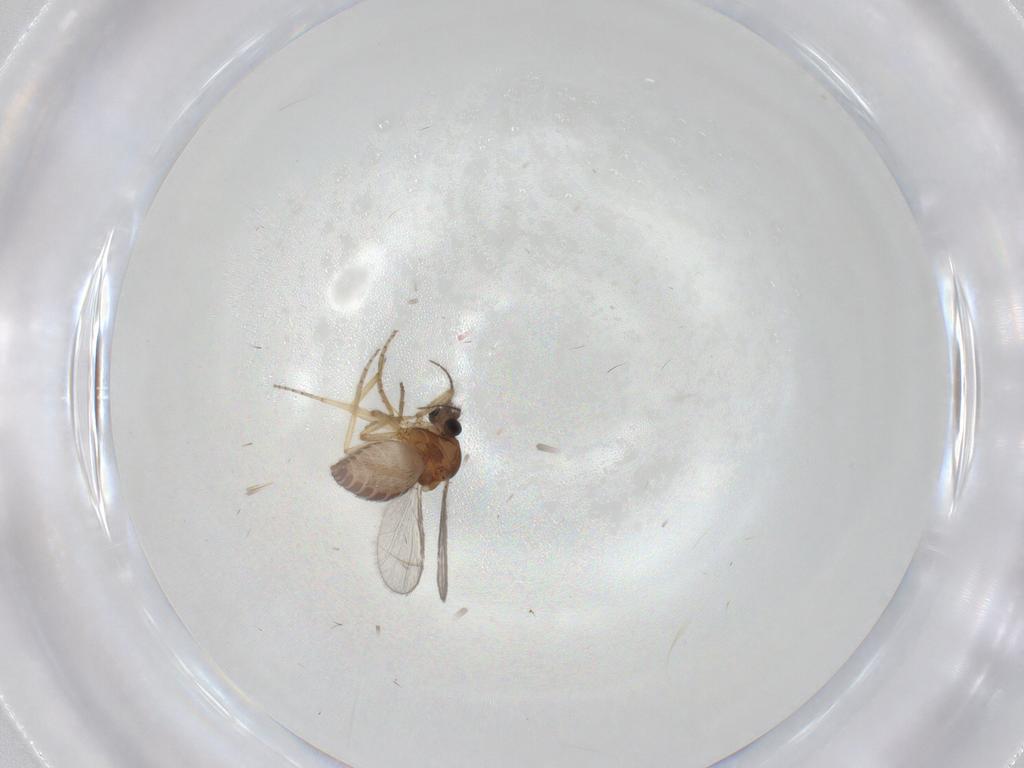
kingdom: Animalia
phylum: Arthropoda
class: Insecta
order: Diptera
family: Ceratopogonidae
